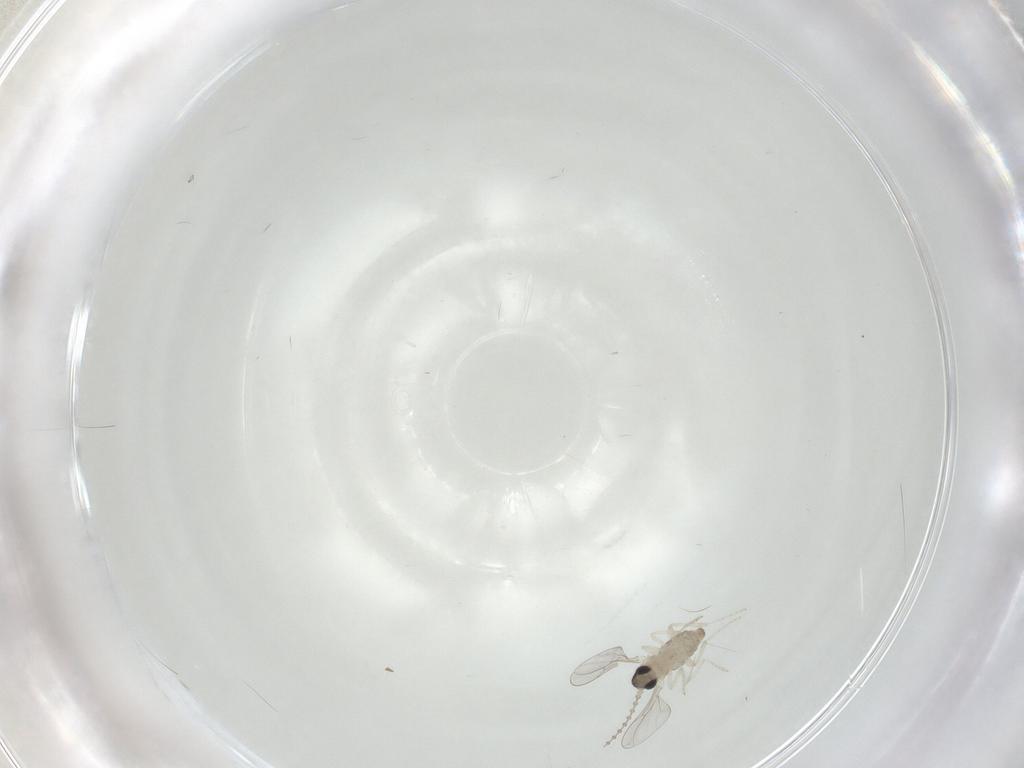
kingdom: Animalia
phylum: Arthropoda
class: Insecta
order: Diptera
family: Cecidomyiidae
